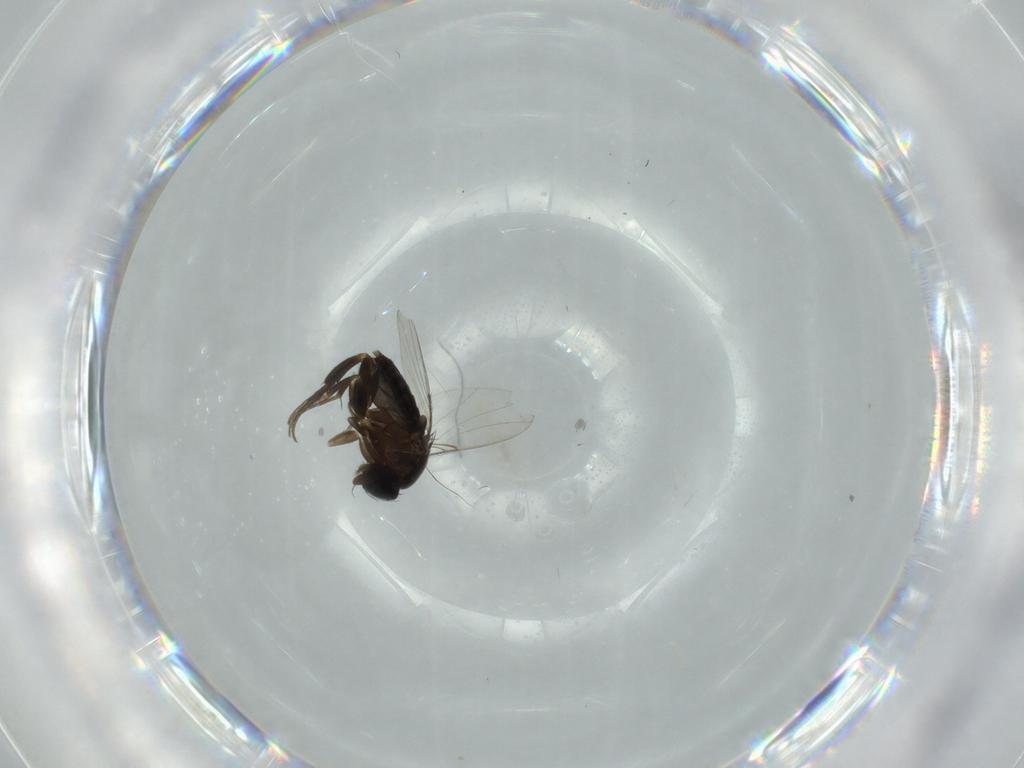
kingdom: Animalia
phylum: Arthropoda
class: Insecta
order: Diptera
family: Phoridae
